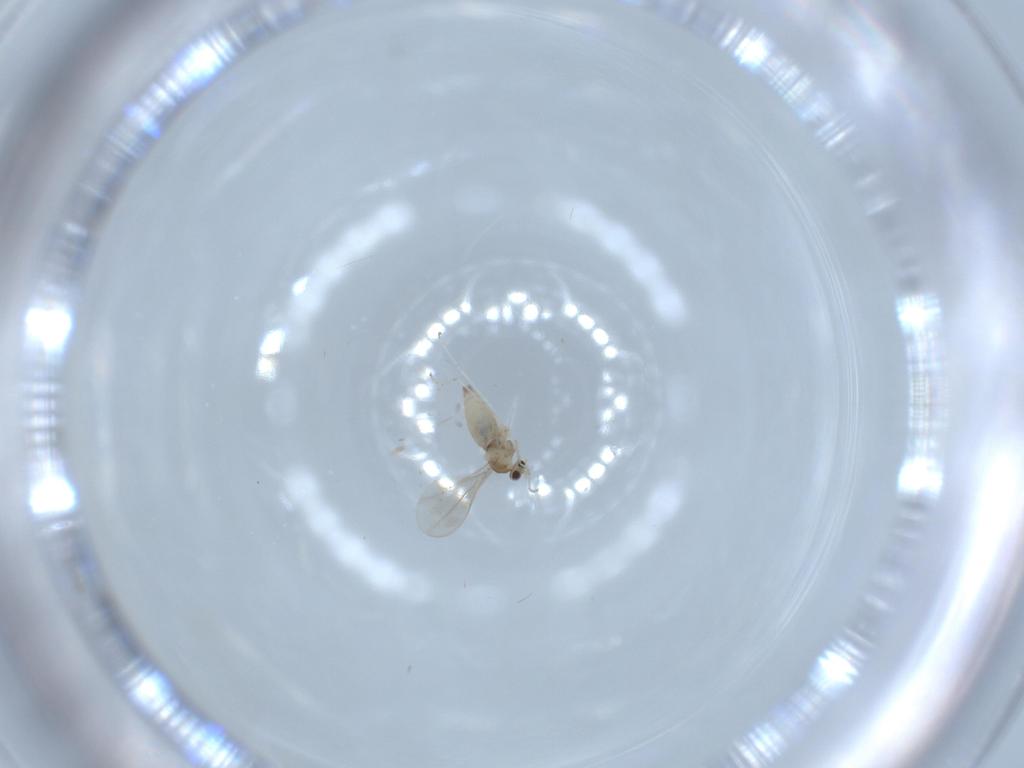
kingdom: Animalia
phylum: Arthropoda
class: Insecta
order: Diptera
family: Cecidomyiidae
